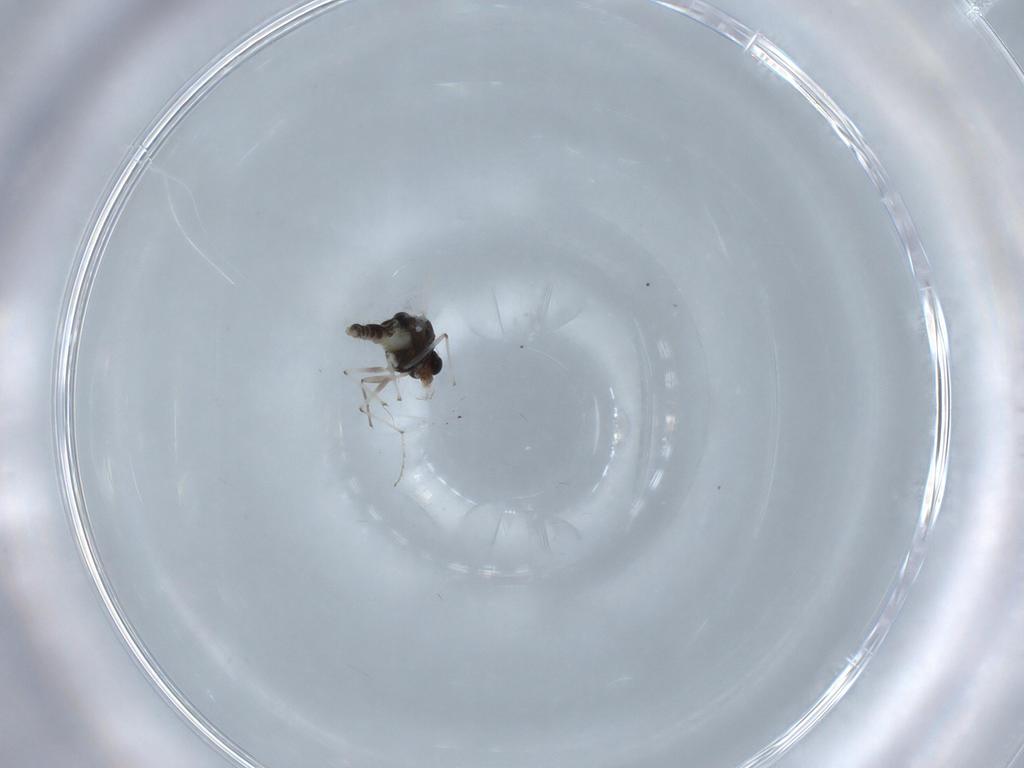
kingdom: Animalia
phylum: Arthropoda
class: Insecta
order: Diptera
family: Chironomidae
